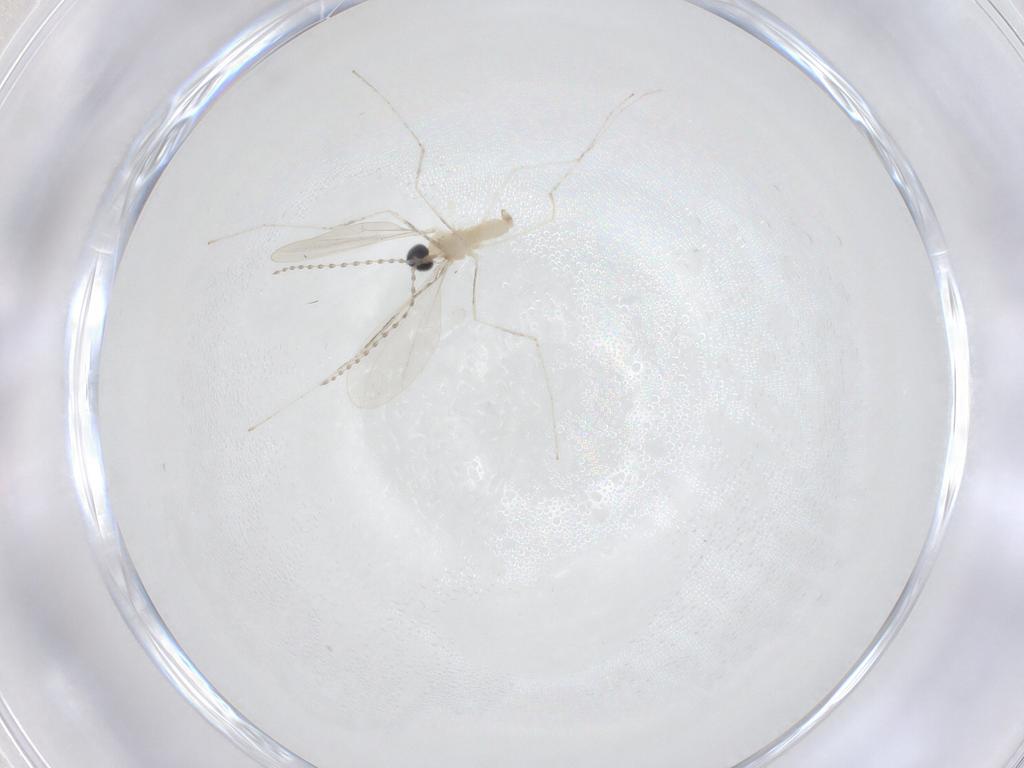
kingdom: Animalia
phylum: Arthropoda
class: Insecta
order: Diptera
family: Cecidomyiidae
